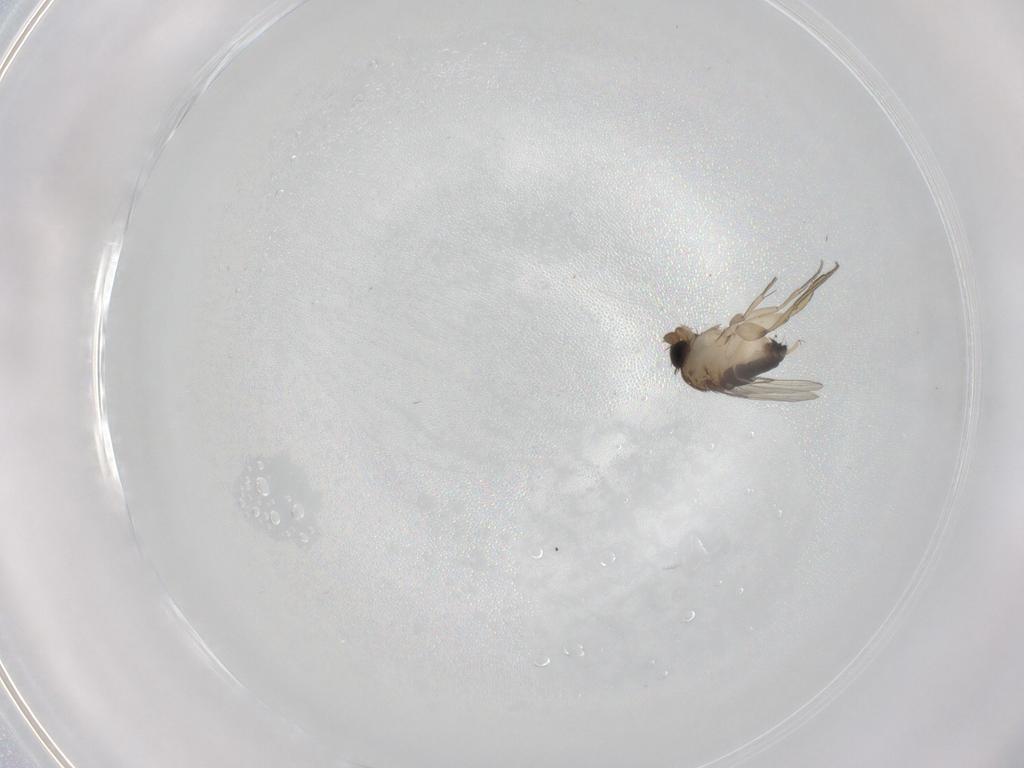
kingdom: Animalia
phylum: Arthropoda
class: Insecta
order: Diptera
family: Phoridae
